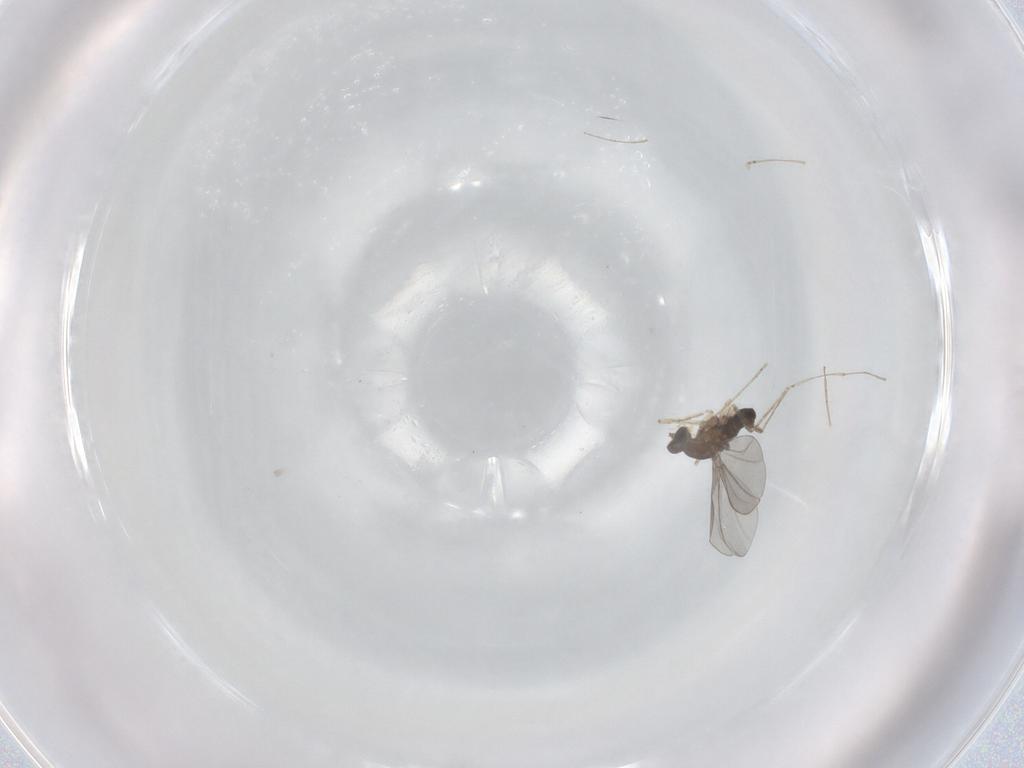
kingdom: Animalia
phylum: Arthropoda
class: Insecta
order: Diptera
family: Cecidomyiidae
